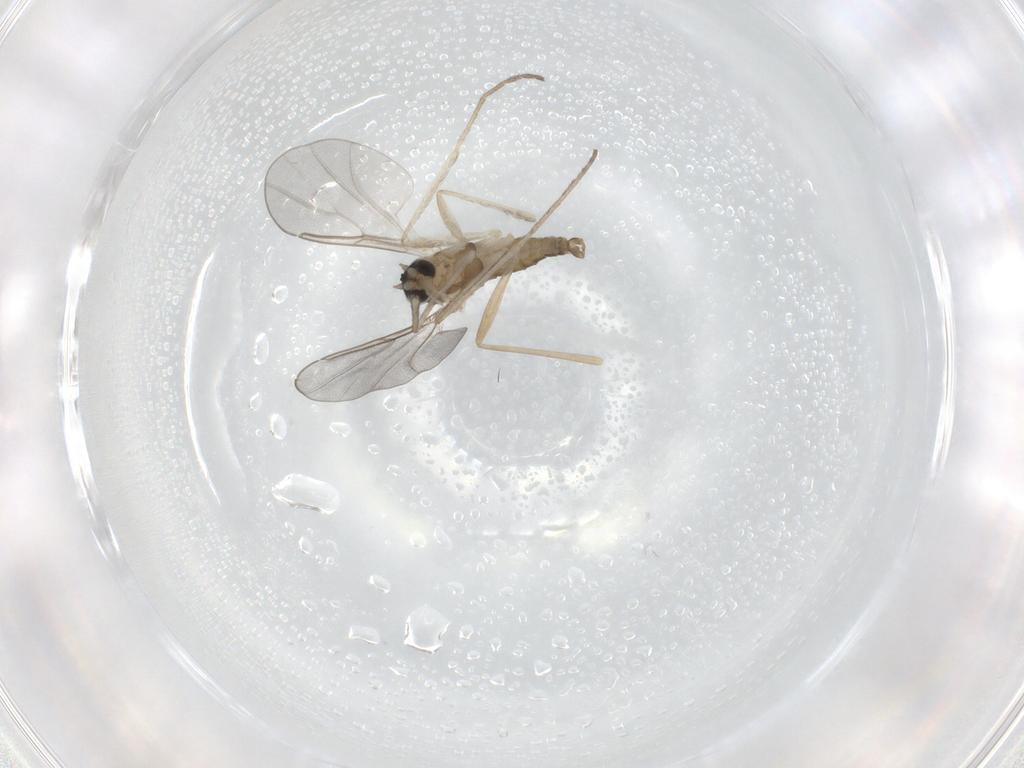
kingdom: Animalia
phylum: Arthropoda
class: Insecta
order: Diptera
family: Cecidomyiidae
